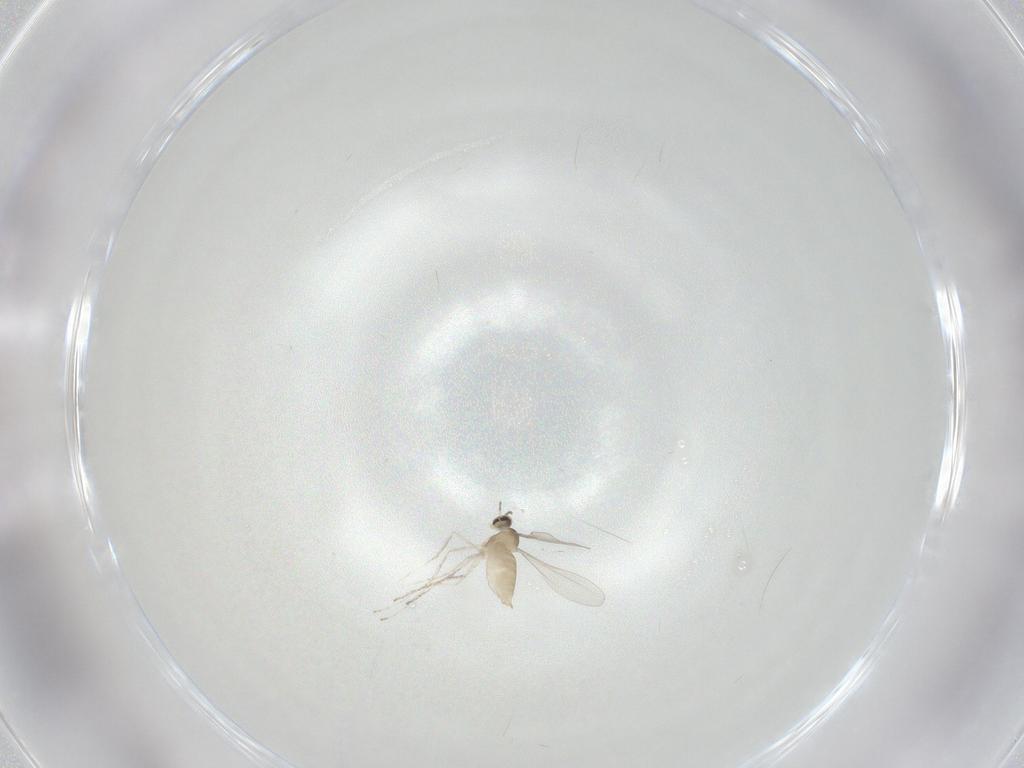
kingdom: Animalia
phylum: Arthropoda
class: Insecta
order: Diptera
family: Cecidomyiidae
